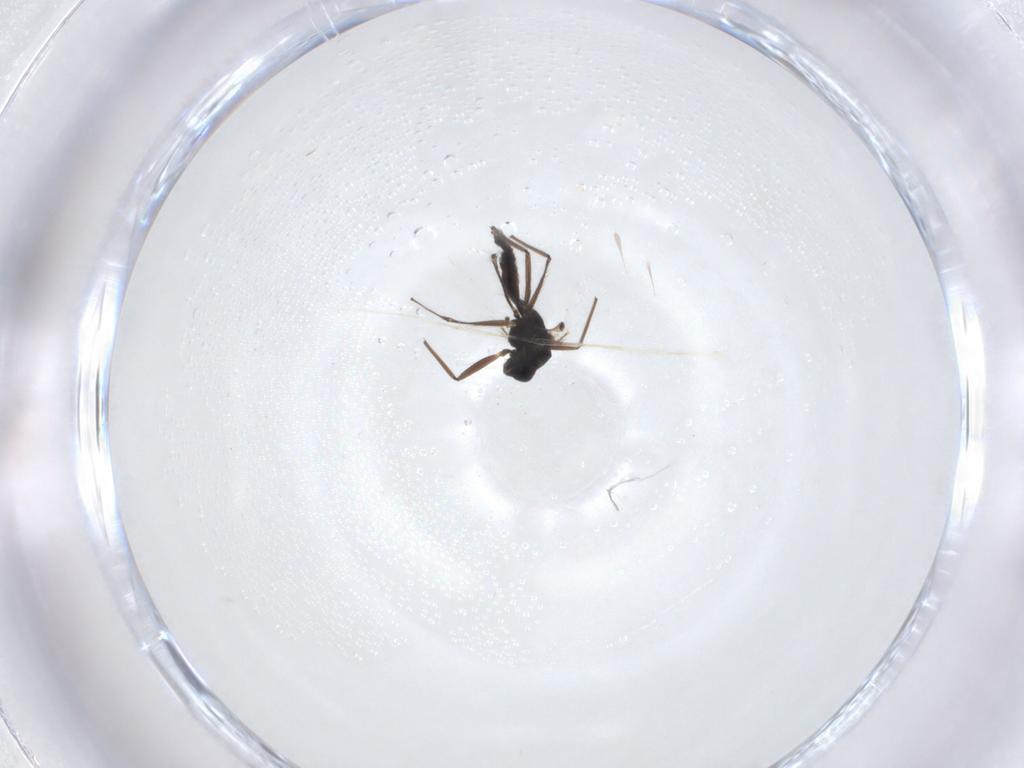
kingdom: Animalia
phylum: Arthropoda
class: Insecta
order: Diptera
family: Chironomidae
